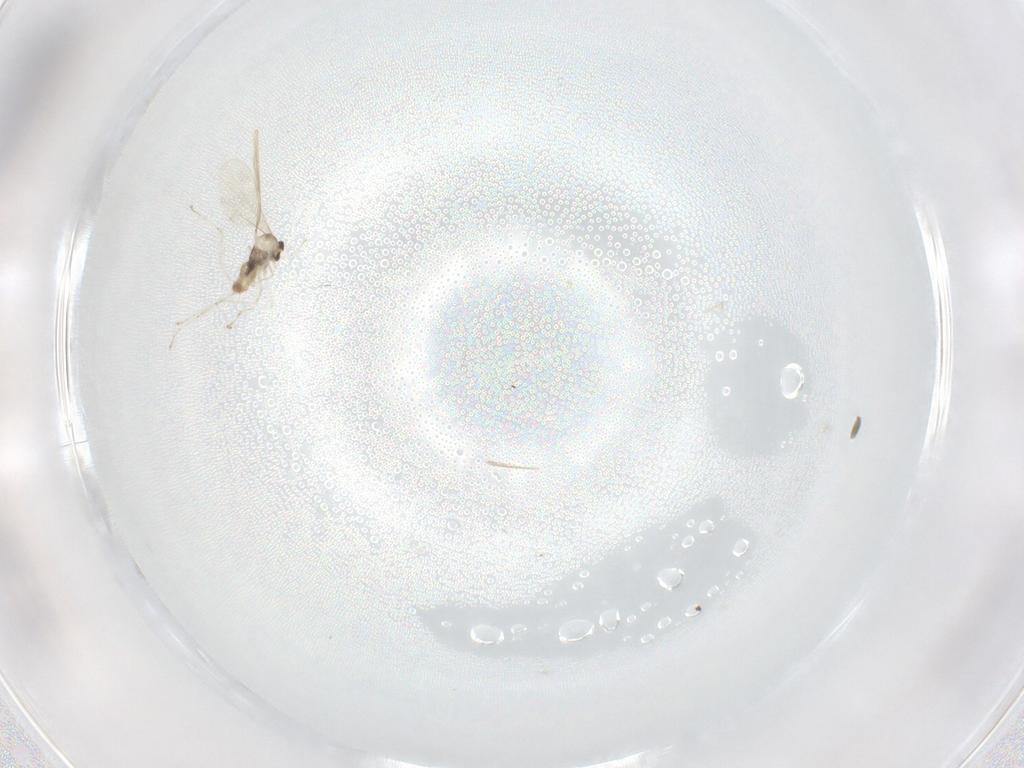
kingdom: Animalia
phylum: Arthropoda
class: Insecta
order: Diptera
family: Cecidomyiidae
